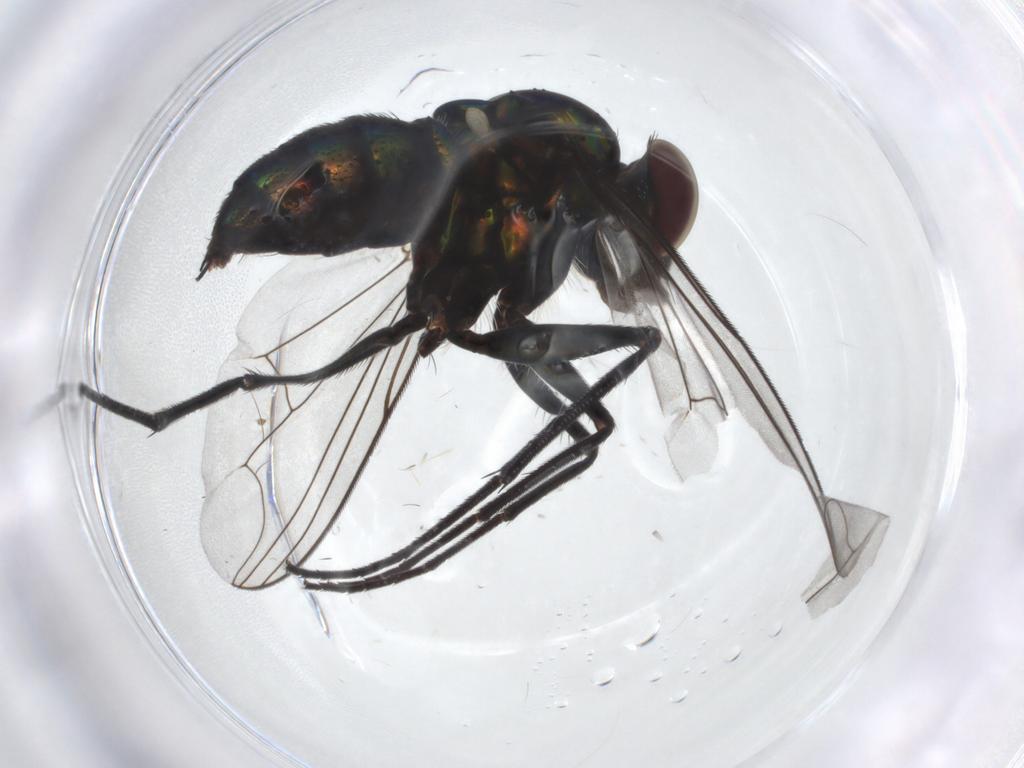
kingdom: Animalia
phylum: Arthropoda
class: Insecta
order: Diptera
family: Dolichopodidae
